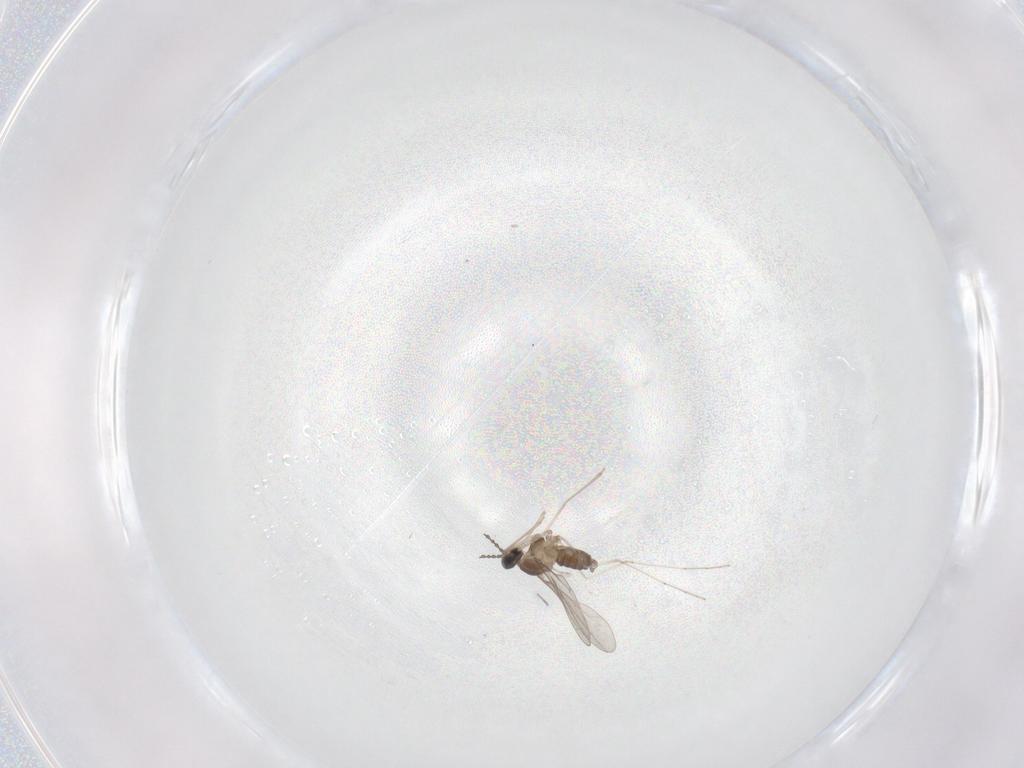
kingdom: Animalia
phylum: Arthropoda
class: Insecta
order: Diptera
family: Cecidomyiidae
